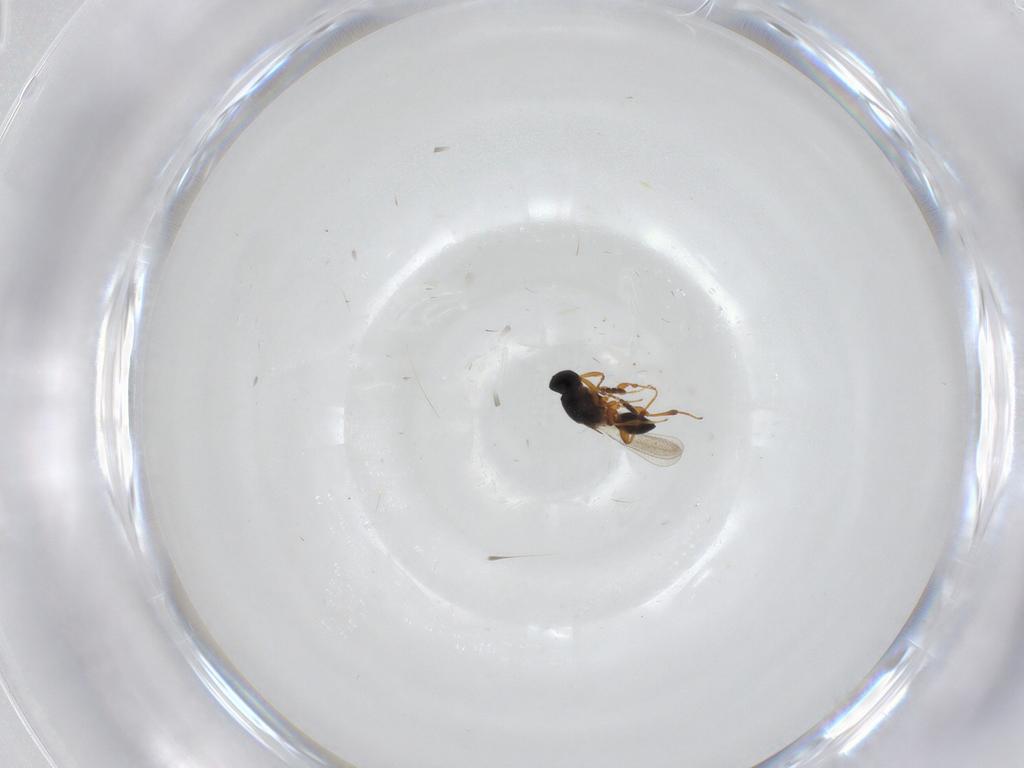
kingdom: Animalia
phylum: Arthropoda
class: Insecta
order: Hymenoptera
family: Platygastridae
